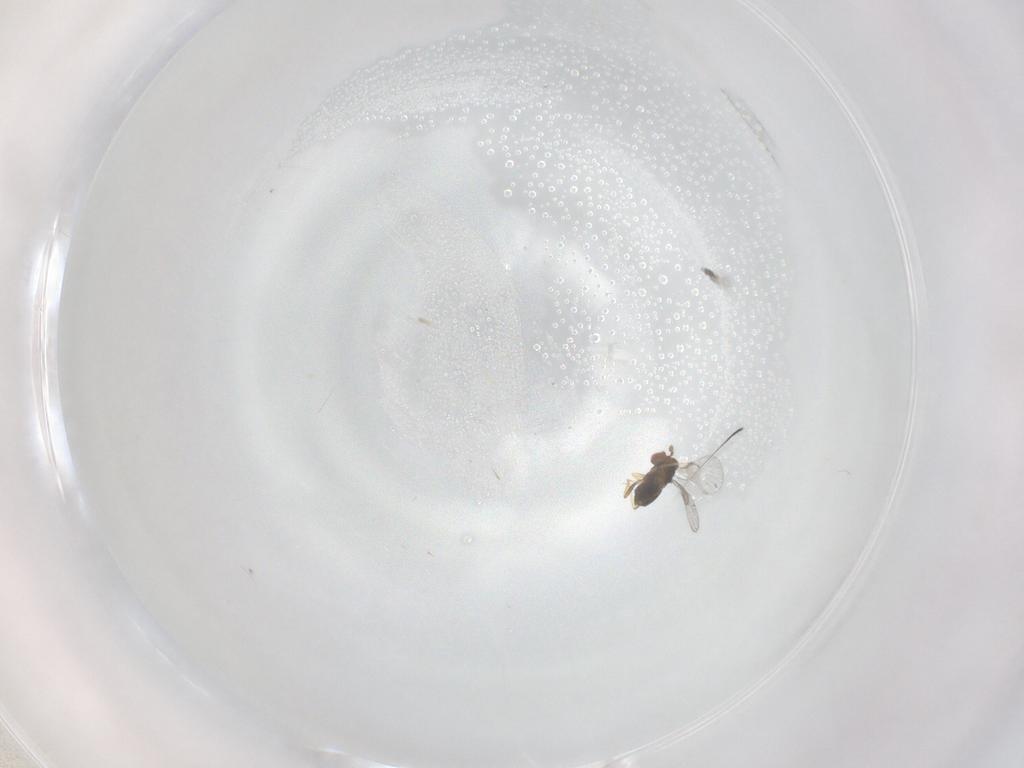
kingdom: Animalia
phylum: Arthropoda
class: Insecta
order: Hymenoptera
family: Trichogrammatidae
